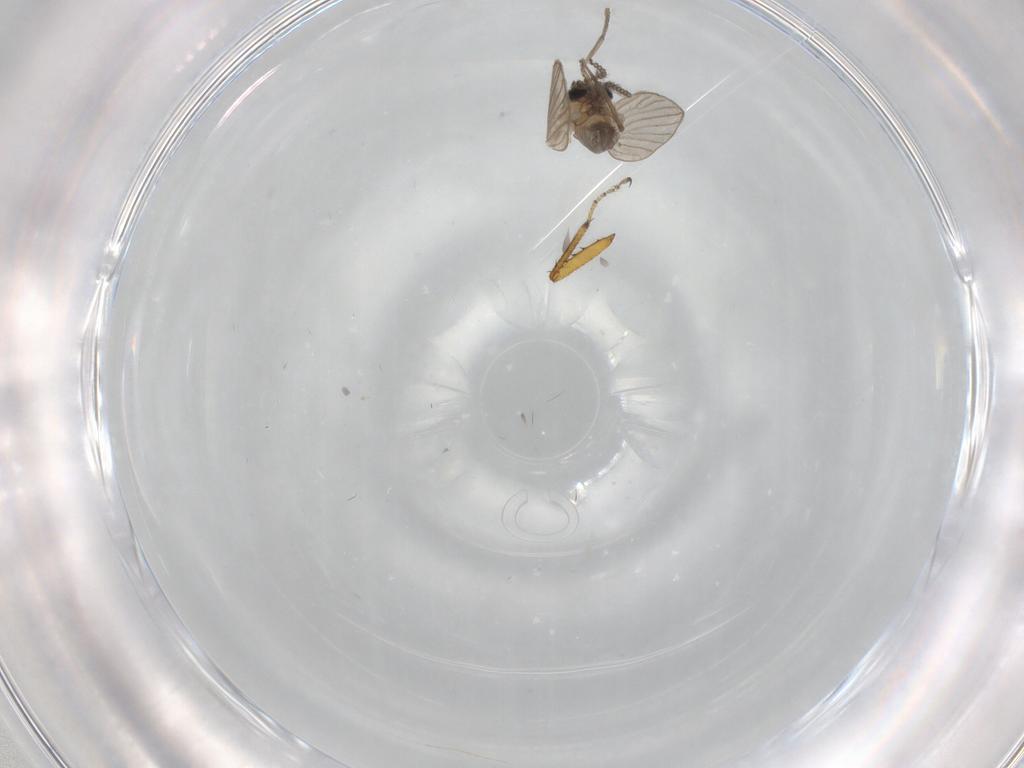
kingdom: Animalia
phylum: Arthropoda
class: Insecta
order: Diptera
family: Psychodidae
